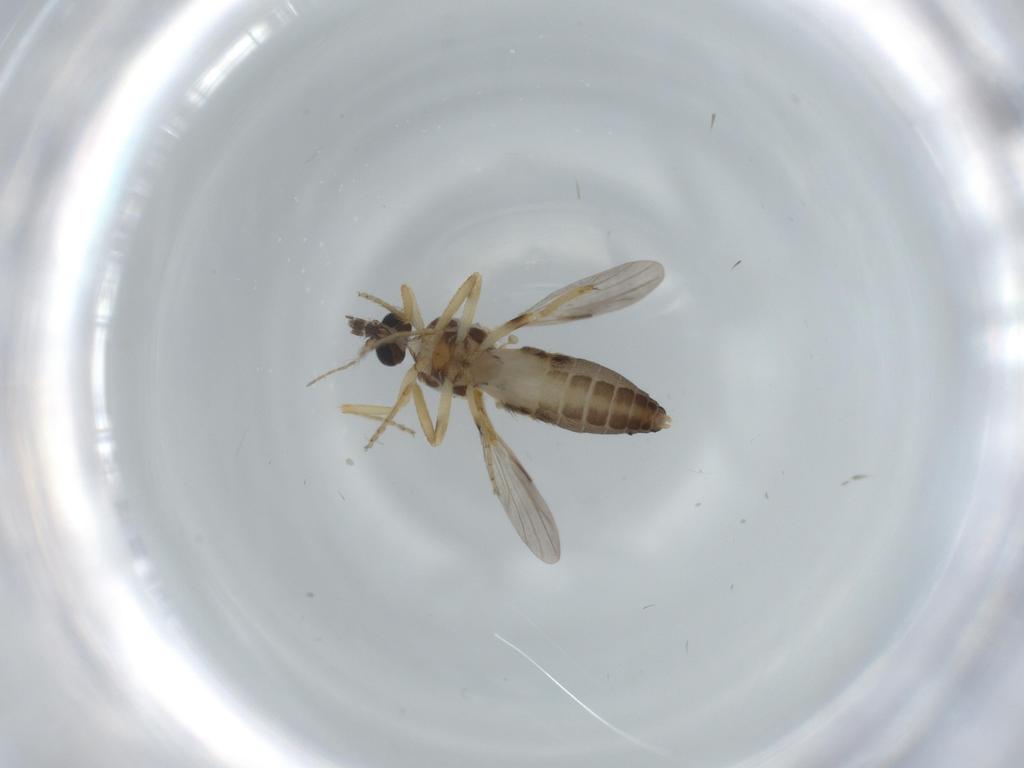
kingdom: Animalia
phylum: Arthropoda
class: Insecta
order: Diptera
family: Ceratopogonidae
